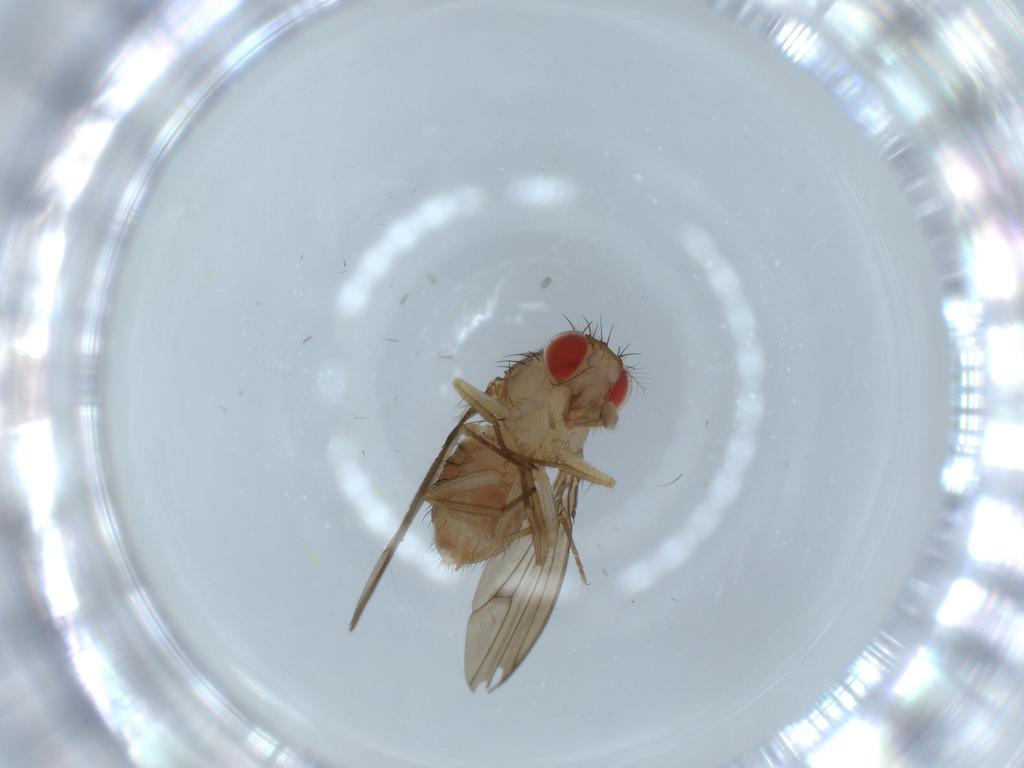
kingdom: Animalia
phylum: Arthropoda
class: Insecta
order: Diptera
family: Drosophilidae
